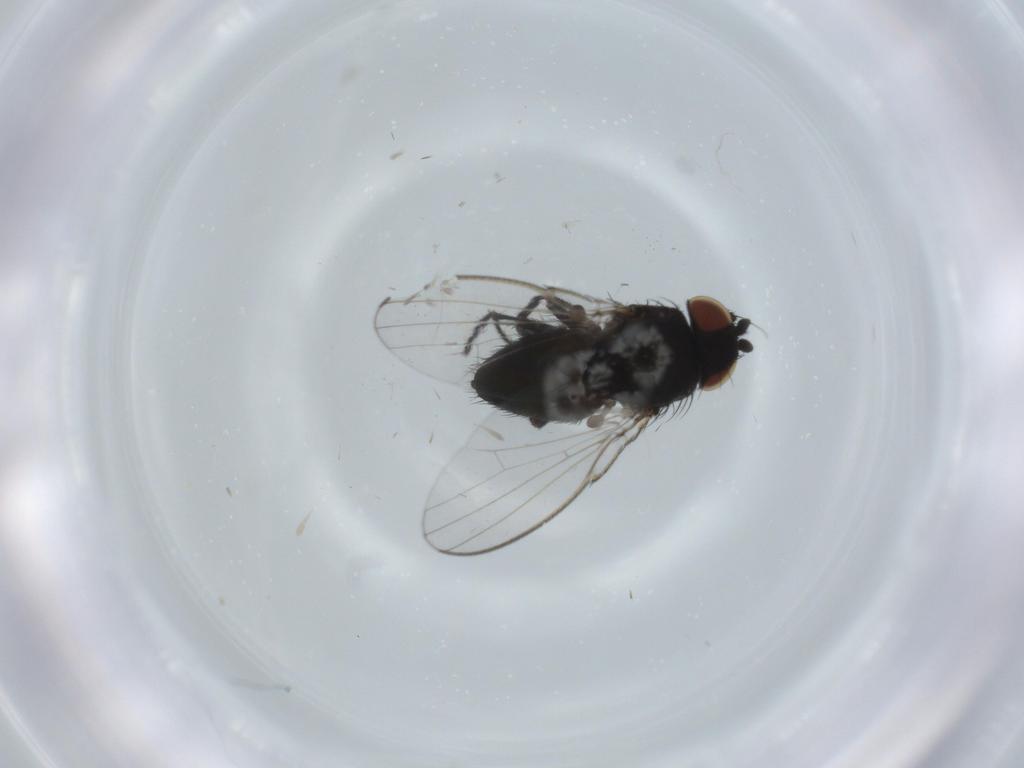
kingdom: Animalia
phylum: Arthropoda
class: Insecta
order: Diptera
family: Milichiidae
